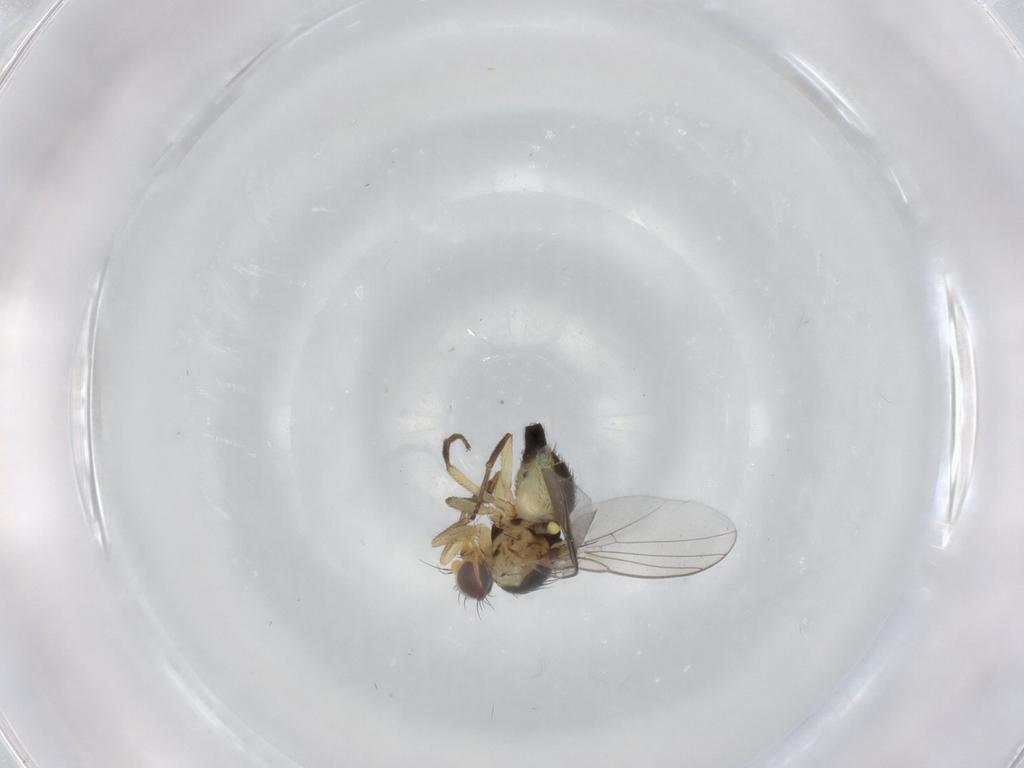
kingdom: Animalia
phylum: Arthropoda
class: Insecta
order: Diptera
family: Agromyzidae
